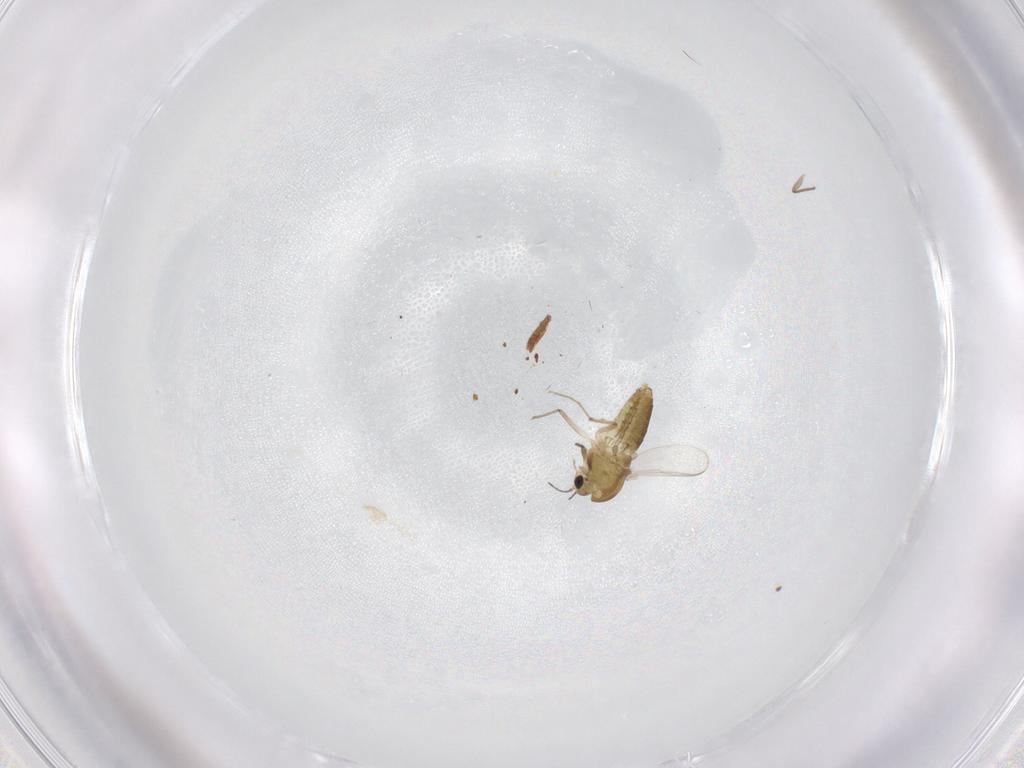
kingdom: Animalia
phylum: Arthropoda
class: Insecta
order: Diptera
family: Chironomidae
